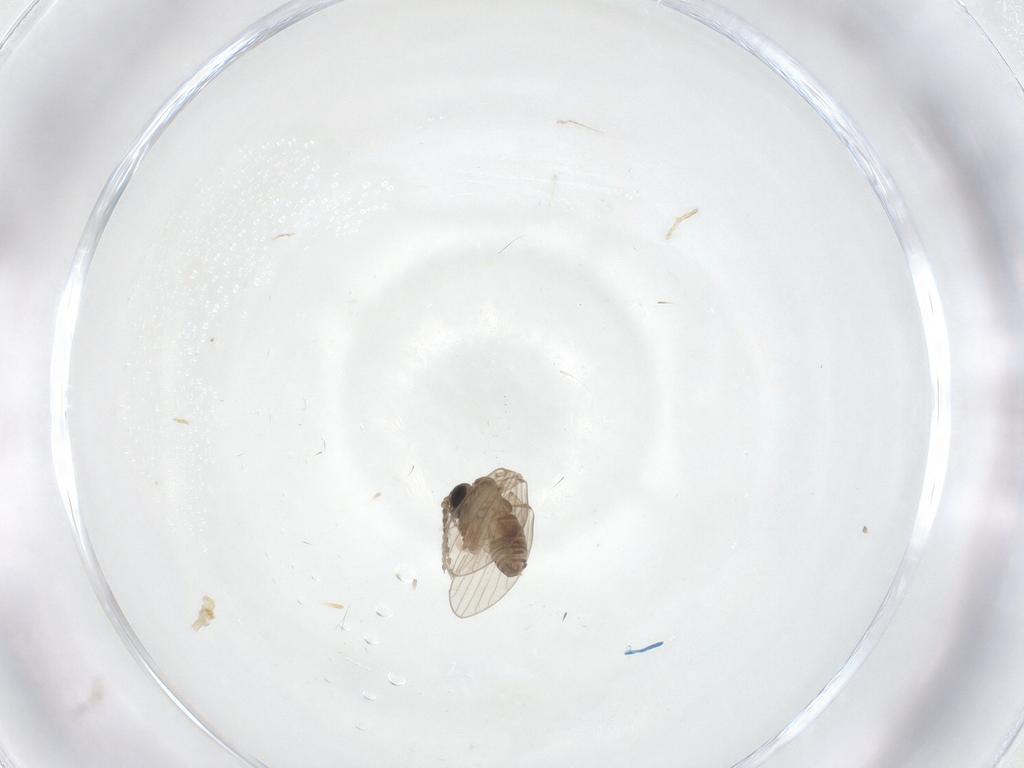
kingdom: Animalia
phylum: Arthropoda
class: Insecta
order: Diptera
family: Psychodidae
